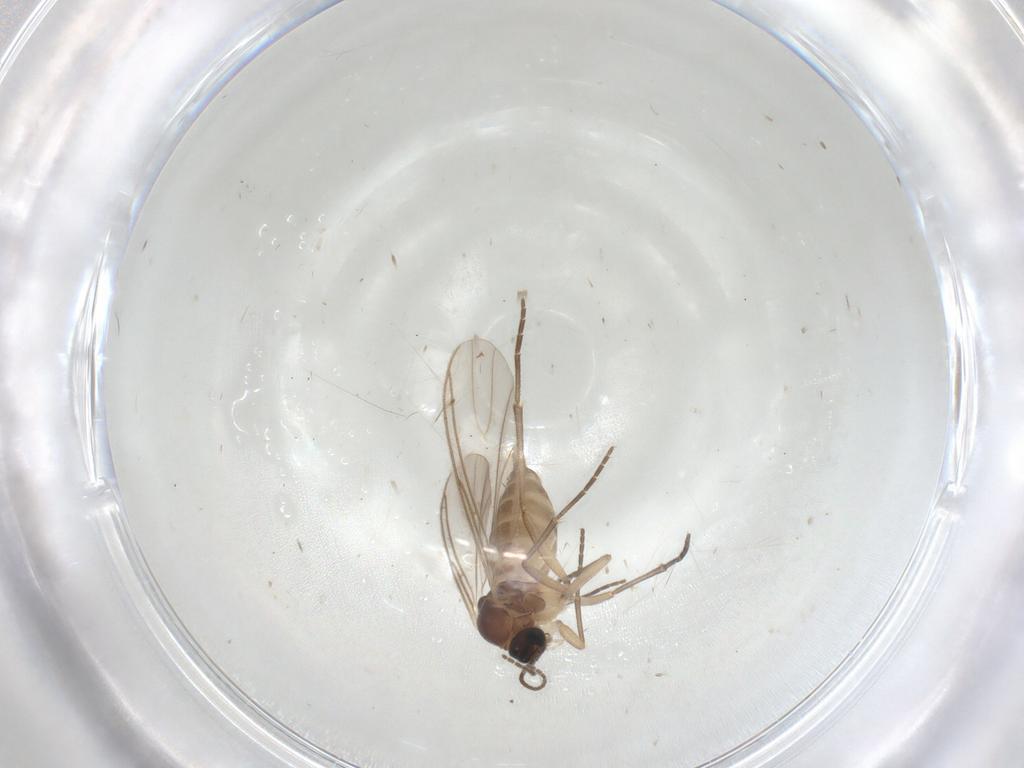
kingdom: Animalia
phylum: Arthropoda
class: Insecta
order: Diptera
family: Sciaridae
